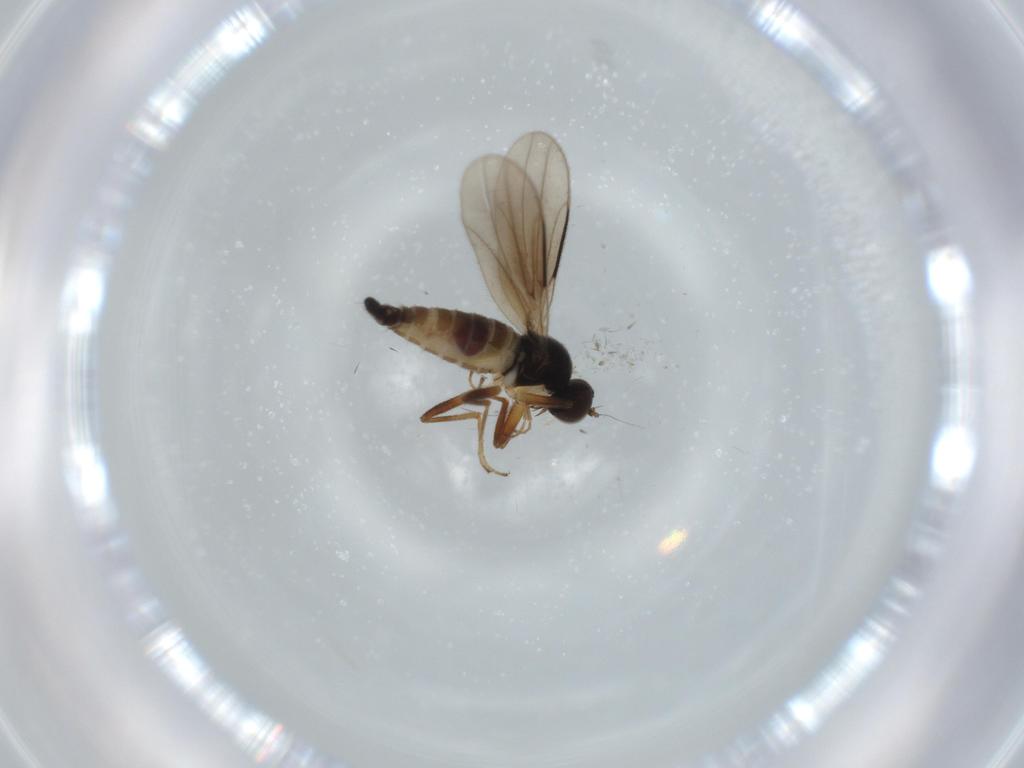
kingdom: Animalia
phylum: Arthropoda
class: Insecta
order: Diptera
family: Hybotidae
